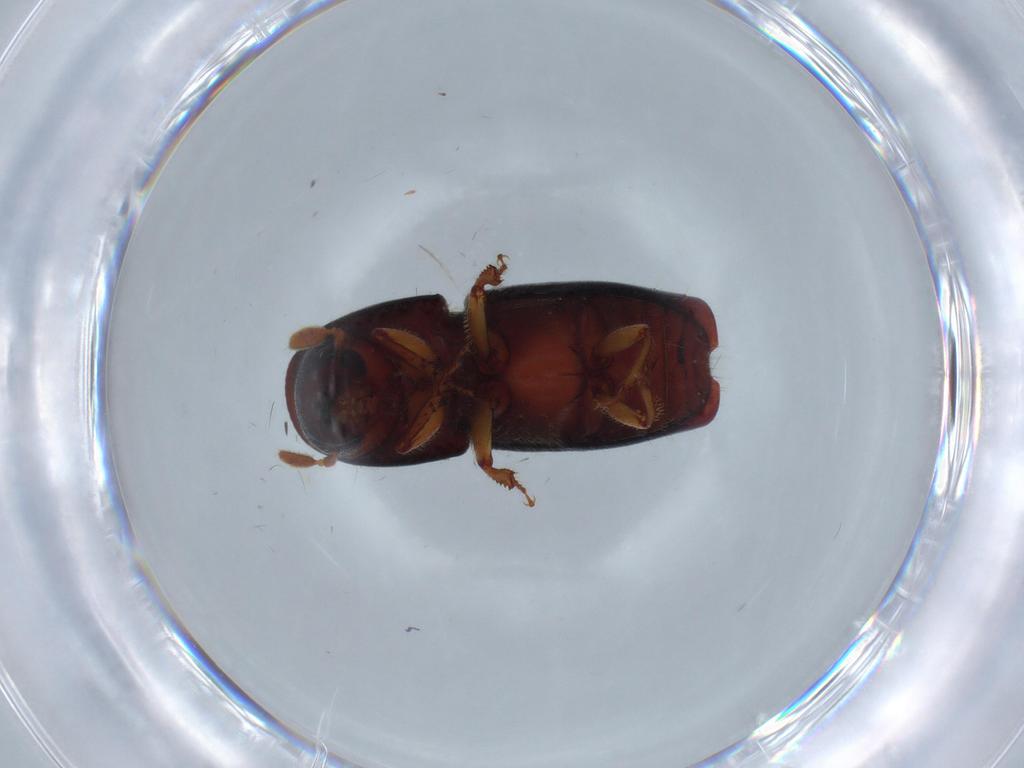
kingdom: Animalia
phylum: Arthropoda
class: Insecta
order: Coleoptera
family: Curculionidae
